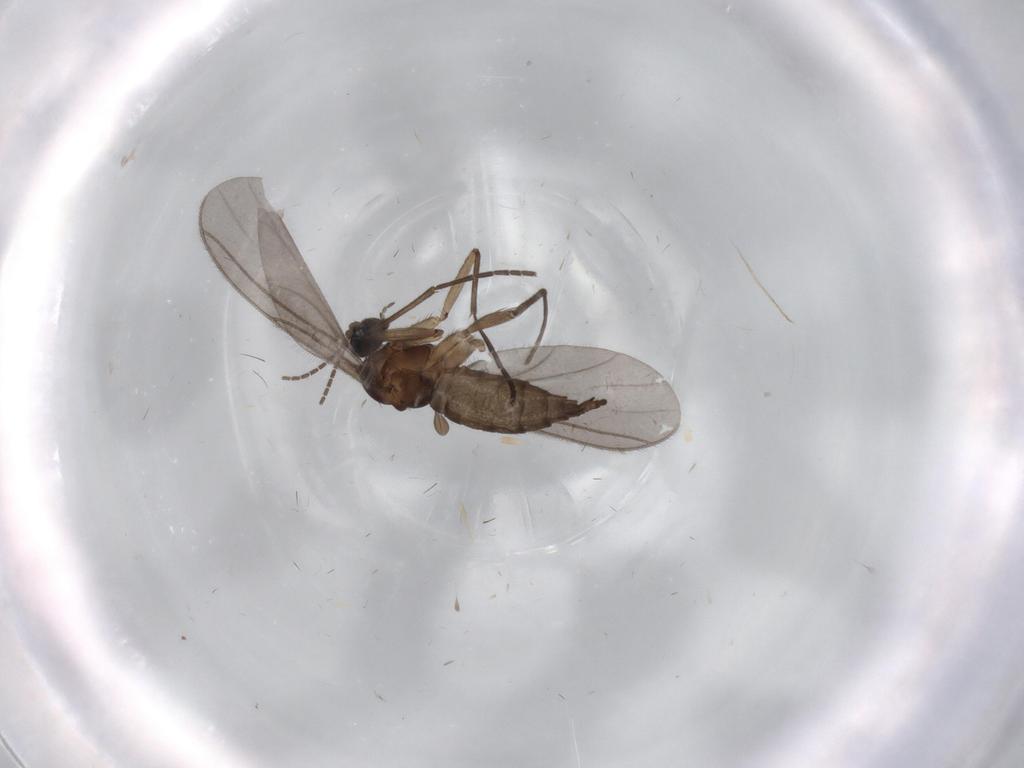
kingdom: Animalia
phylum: Arthropoda
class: Insecta
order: Diptera
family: Sciaridae
